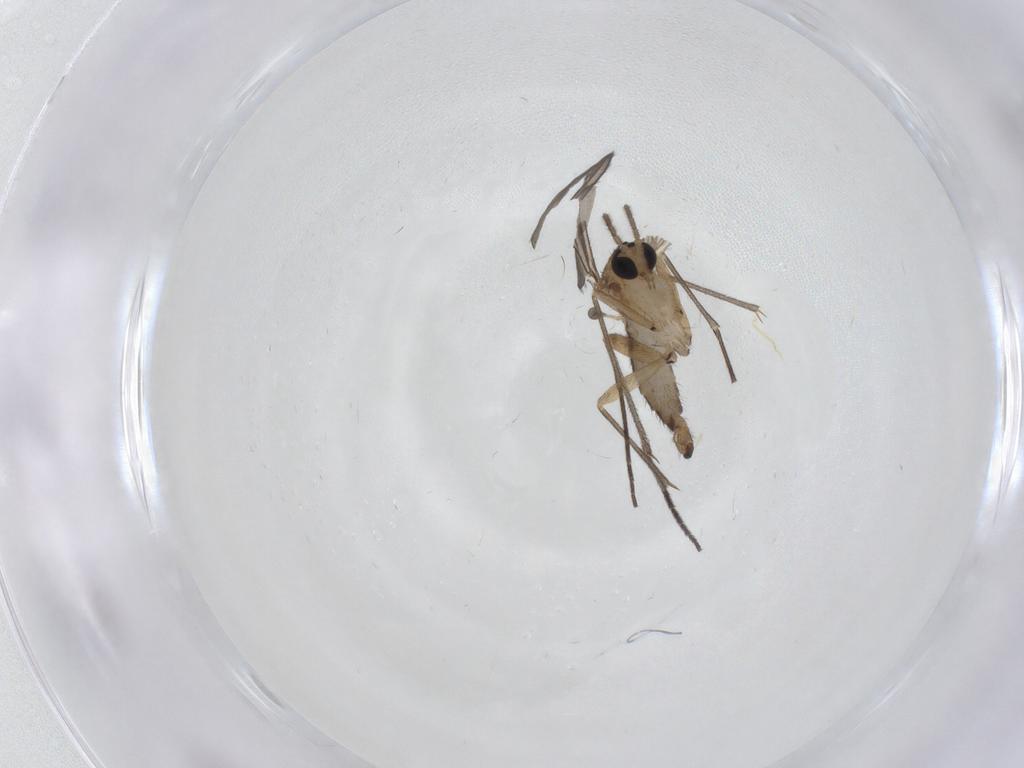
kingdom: Animalia
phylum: Arthropoda
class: Insecta
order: Diptera
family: Sciaridae
